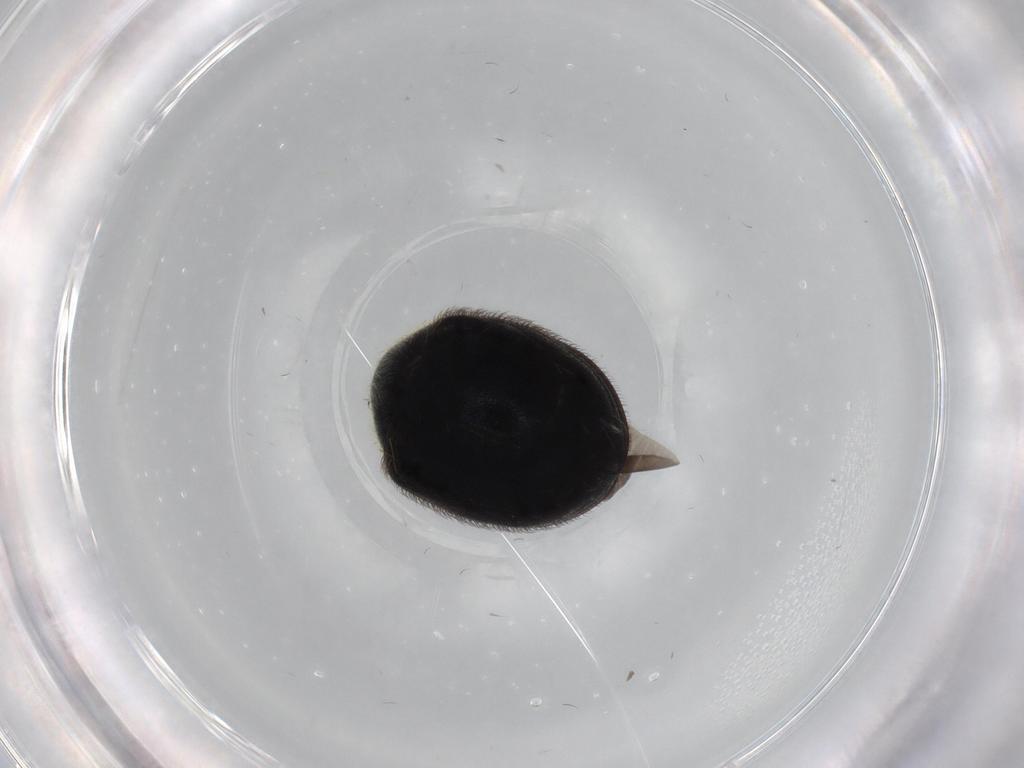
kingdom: Animalia
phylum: Arthropoda
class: Insecta
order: Coleoptera
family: Ptinidae
